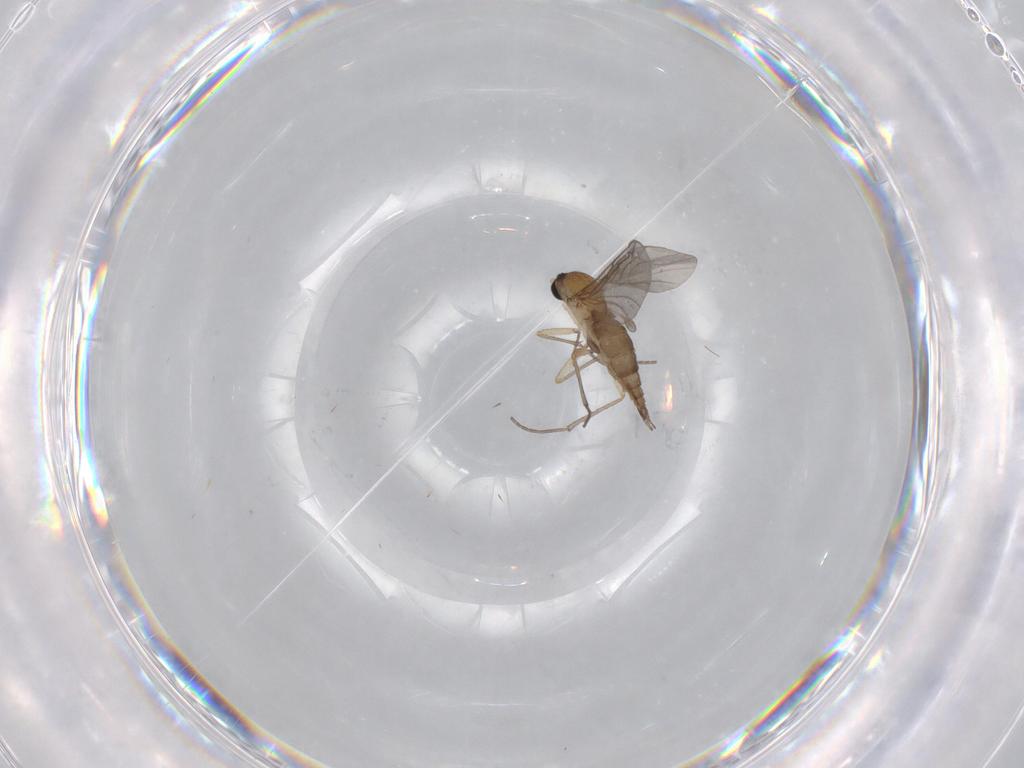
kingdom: Animalia
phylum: Arthropoda
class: Insecta
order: Diptera
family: Sciaridae
